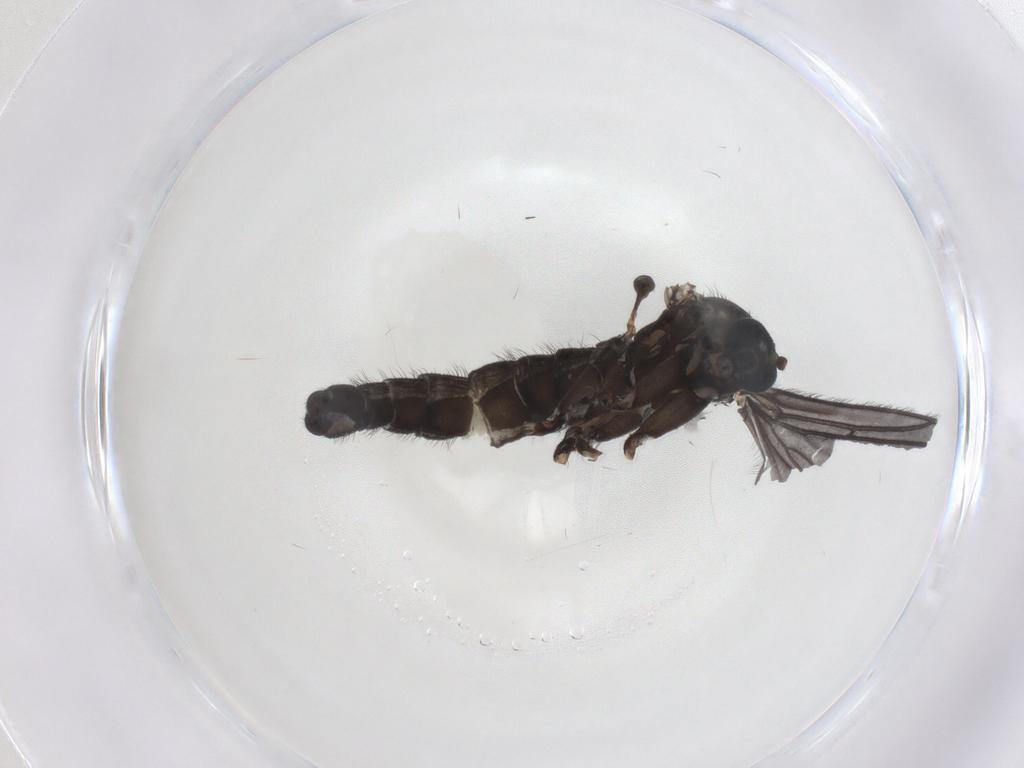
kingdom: Animalia
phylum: Arthropoda
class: Insecta
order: Diptera
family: Sciaridae
